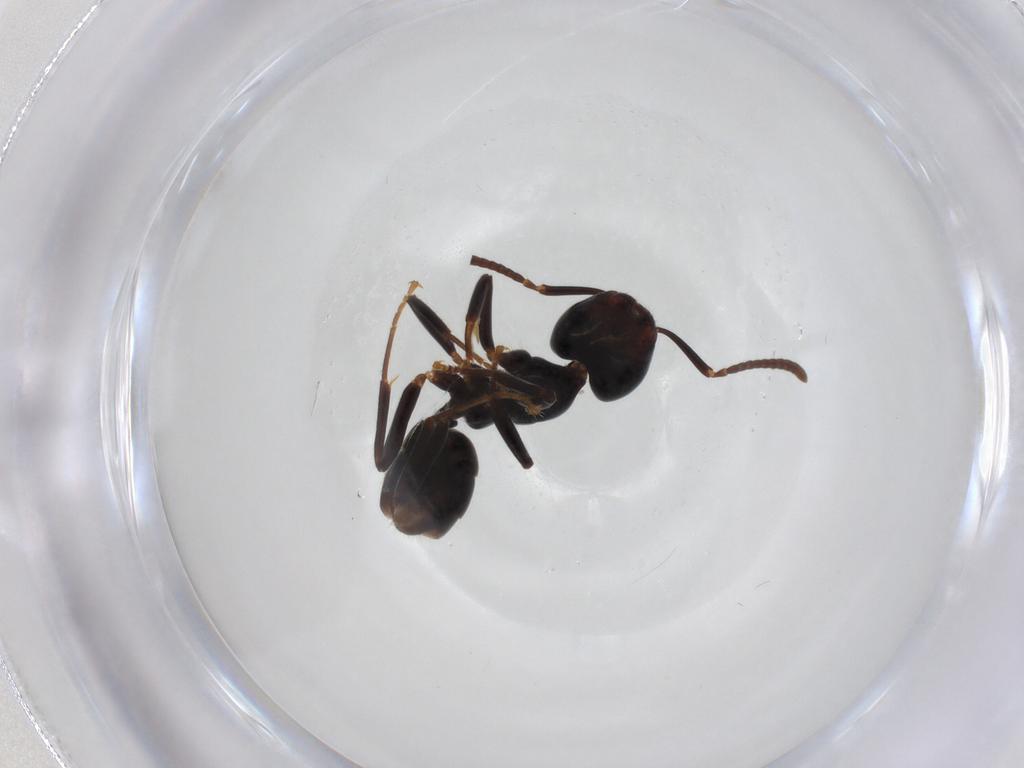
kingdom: Animalia
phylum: Arthropoda
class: Insecta
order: Hymenoptera
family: Formicidae
